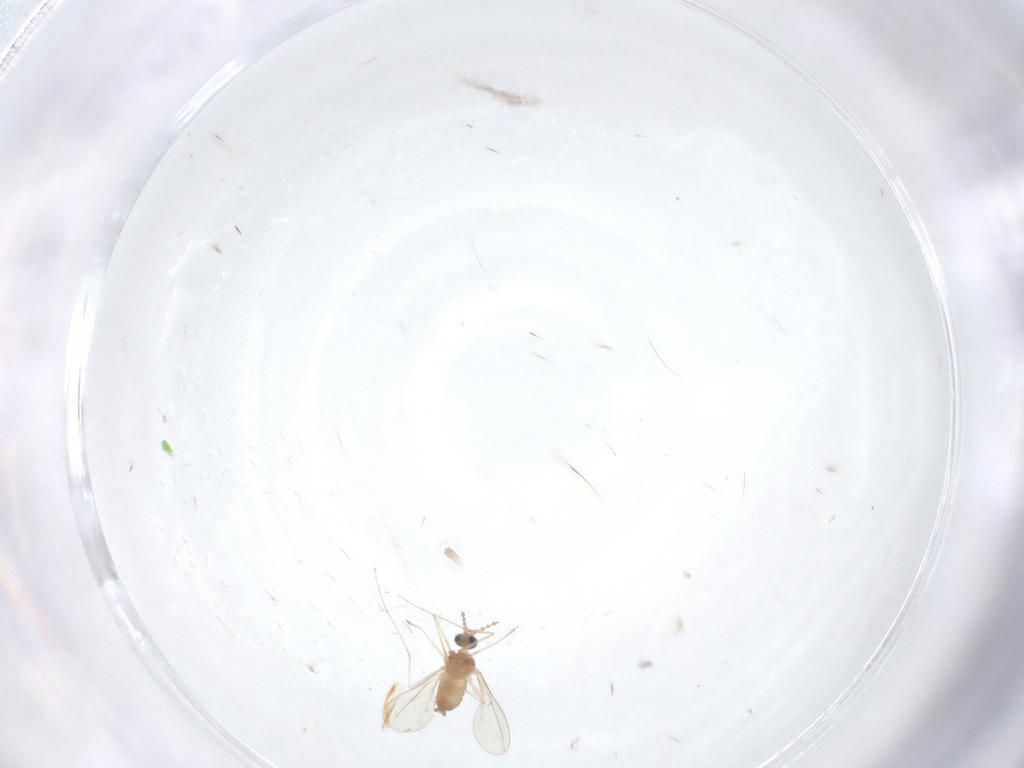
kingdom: Animalia
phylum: Arthropoda
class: Insecta
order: Diptera
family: Cecidomyiidae
